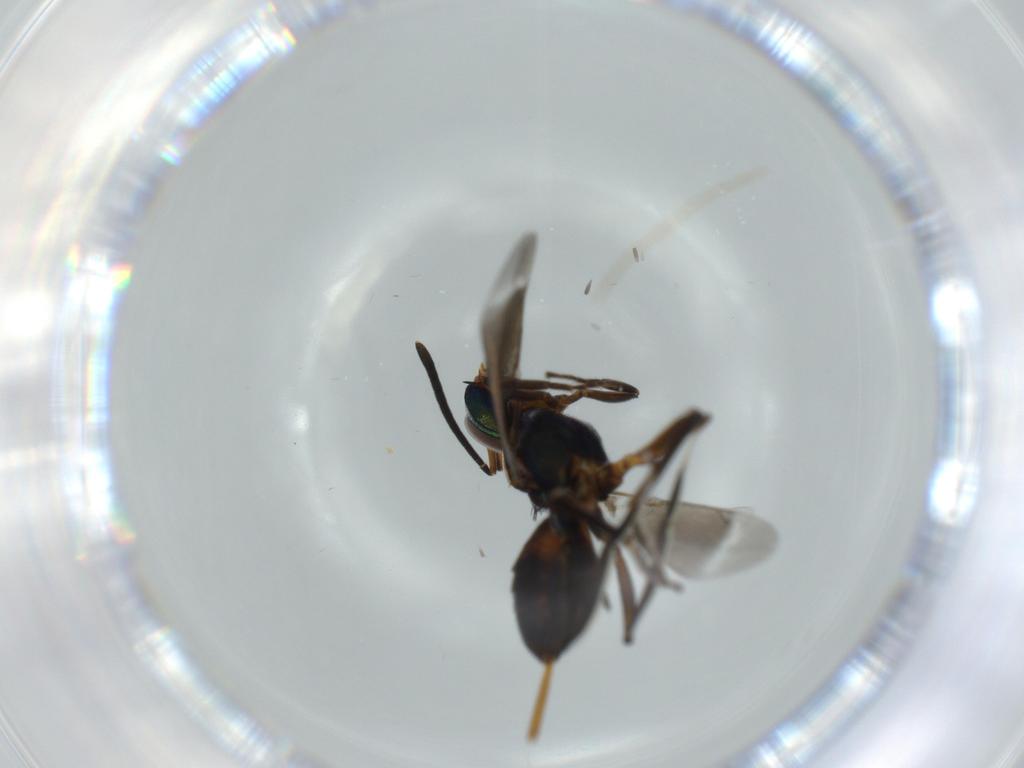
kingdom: Animalia
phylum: Arthropoda
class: Insecta
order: Hymenoptera
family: Eupelmidae
